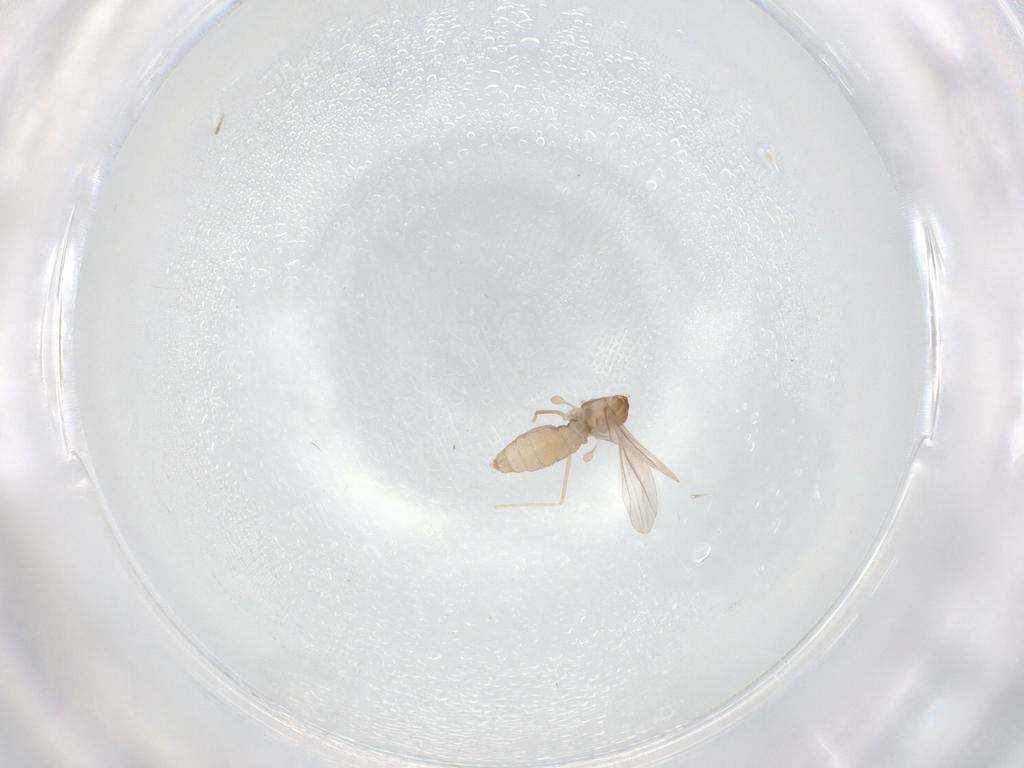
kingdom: Animalia
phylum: Arthropoda
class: Insecta
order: Diptera
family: Cecidomyiidae
